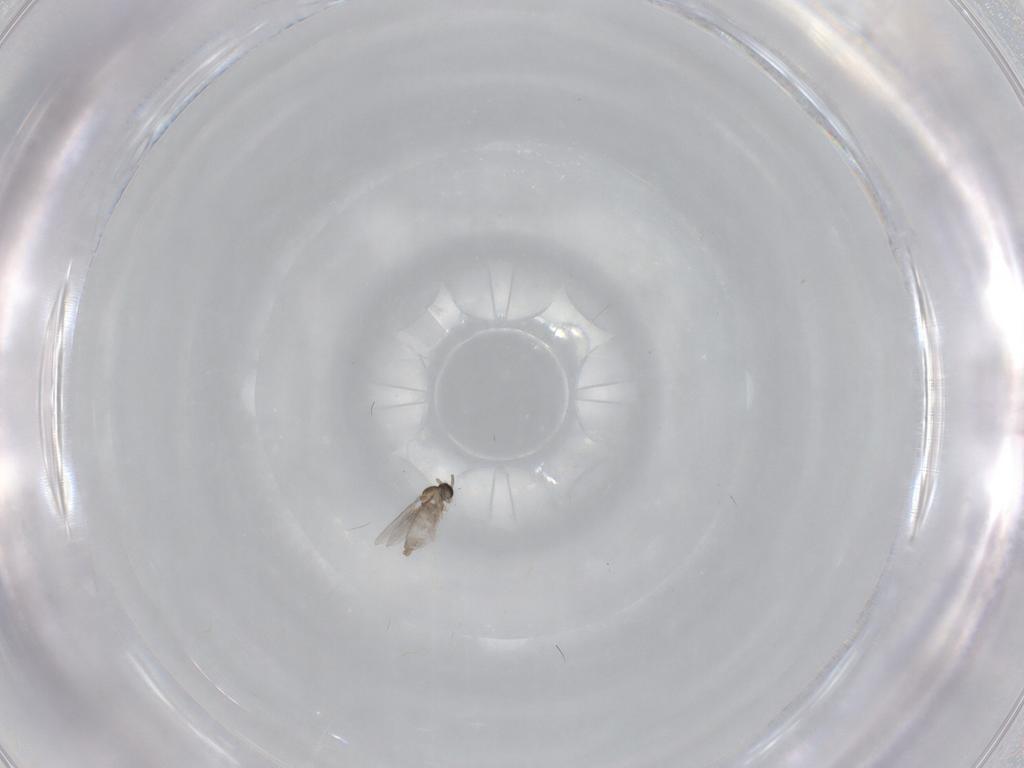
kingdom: Animalia
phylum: Arthropoda
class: Insecta
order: Diptera
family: Cecidomyiidae
